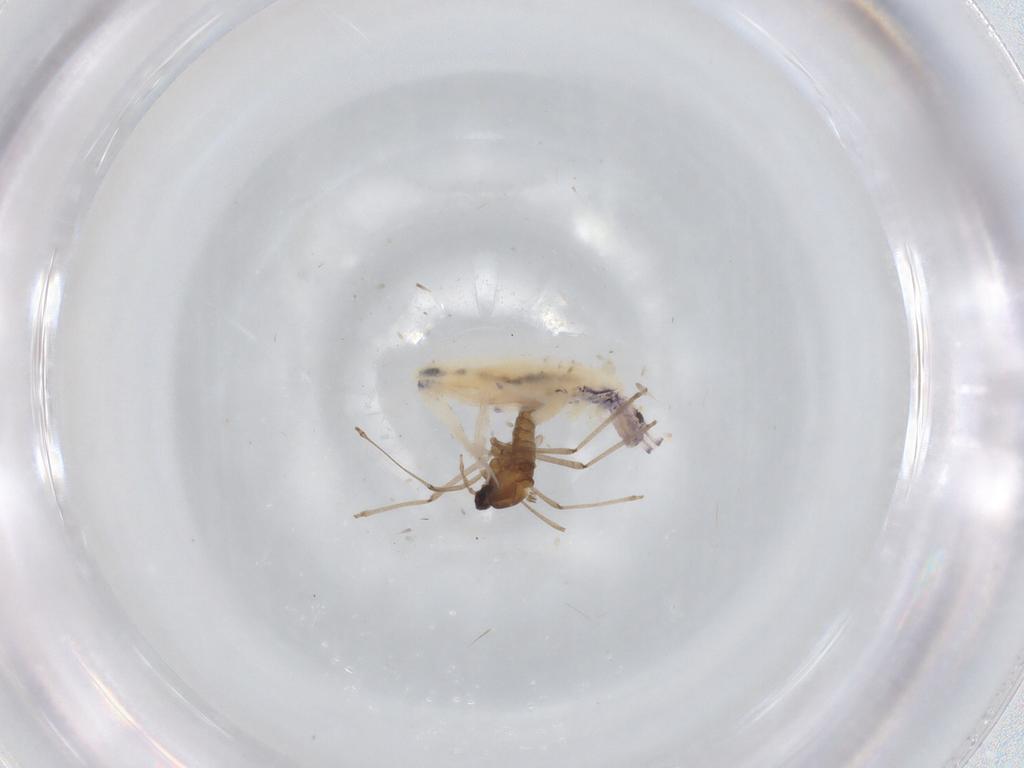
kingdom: Animalia
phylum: Arthropoda
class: Insecta
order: Diptera
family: Cecidomyiidae
